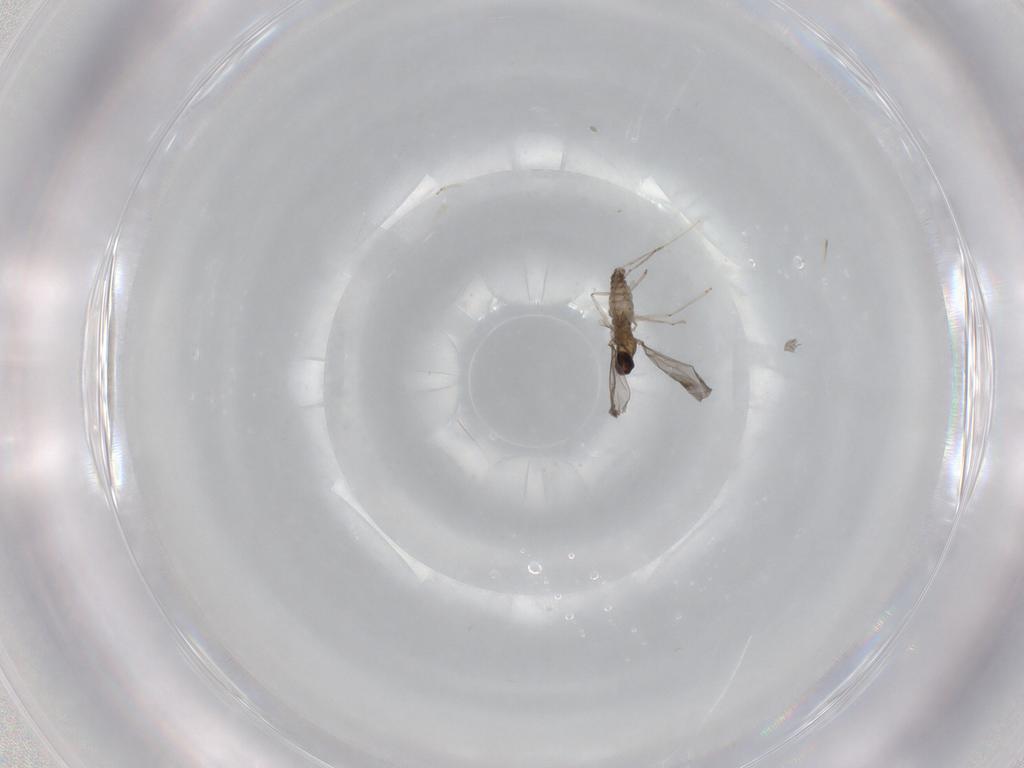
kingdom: Animalia
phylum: Arthropoda
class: Insecta
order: Diptera
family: Cecidomyiidae
